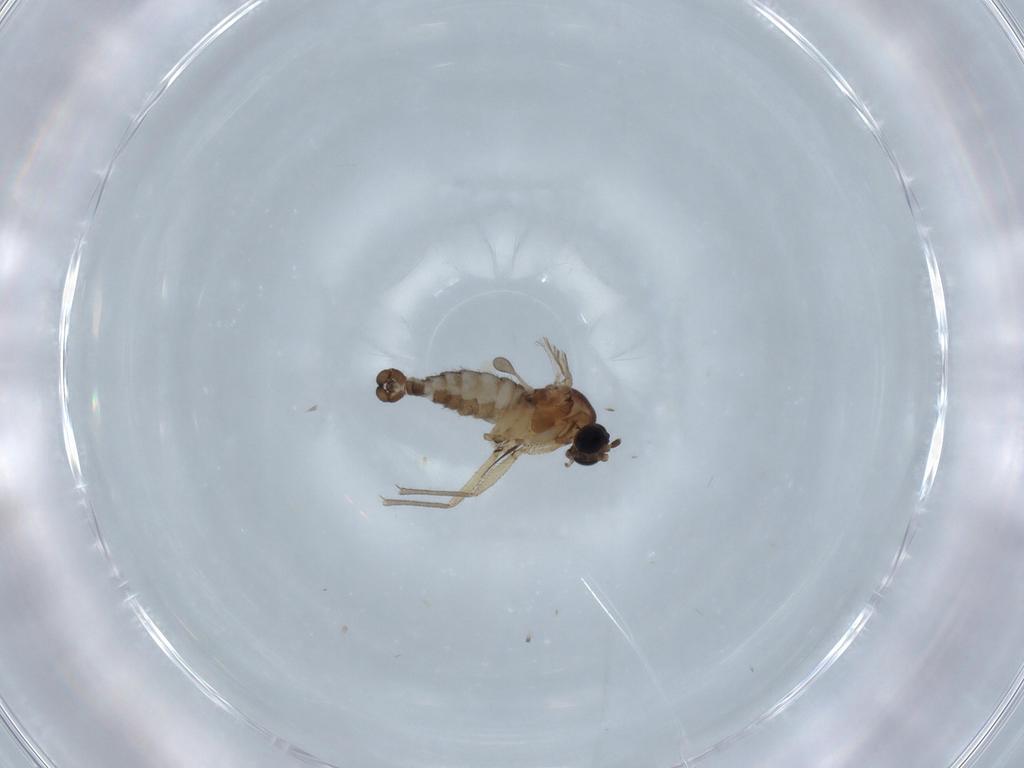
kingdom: Animalia
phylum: Arthropoda
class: Insecta
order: Diptera
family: Sciaridae
